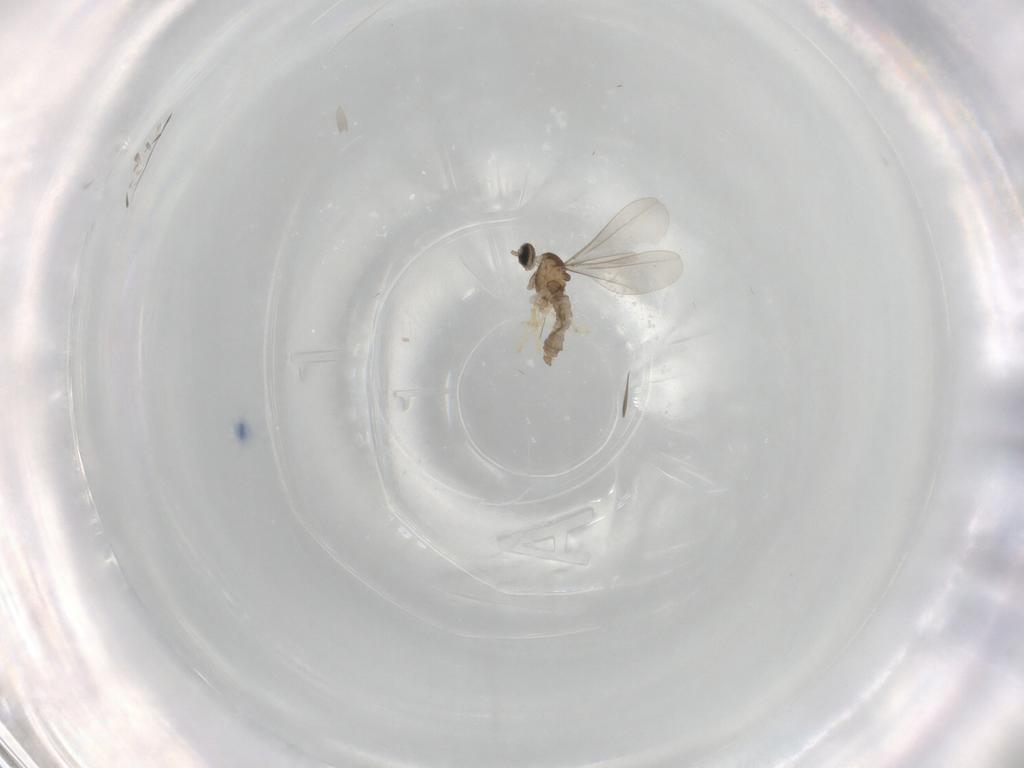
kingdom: Animalia
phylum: Arthropoda
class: Insecta
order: Diptera
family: Cecidomyiidae
